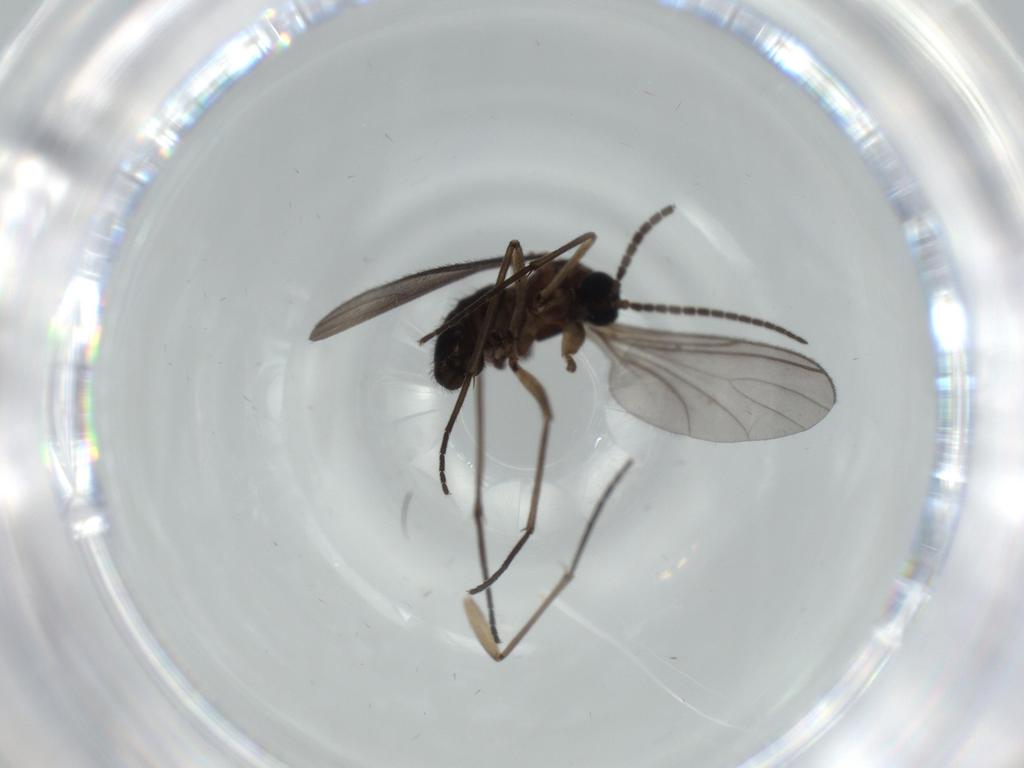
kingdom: Animalia
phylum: Arthropoda
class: Insecta
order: Diptera
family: Sciaridae
